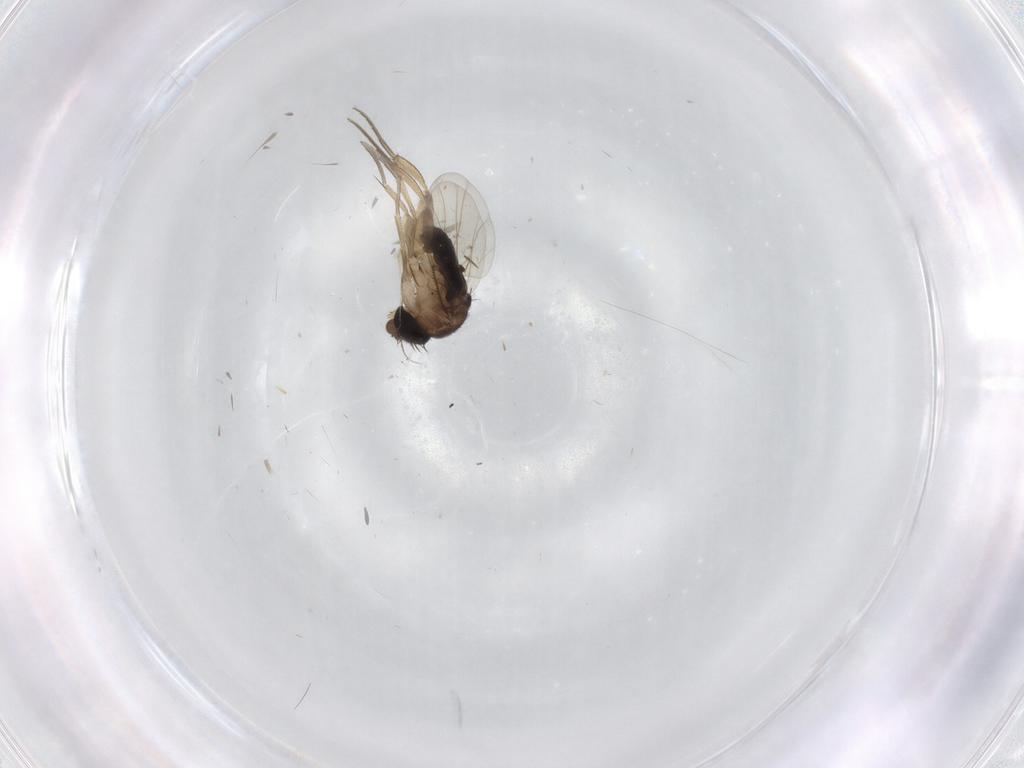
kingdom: Animalia
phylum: Arthropoda
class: Insecta
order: Diptera
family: Phoridae
